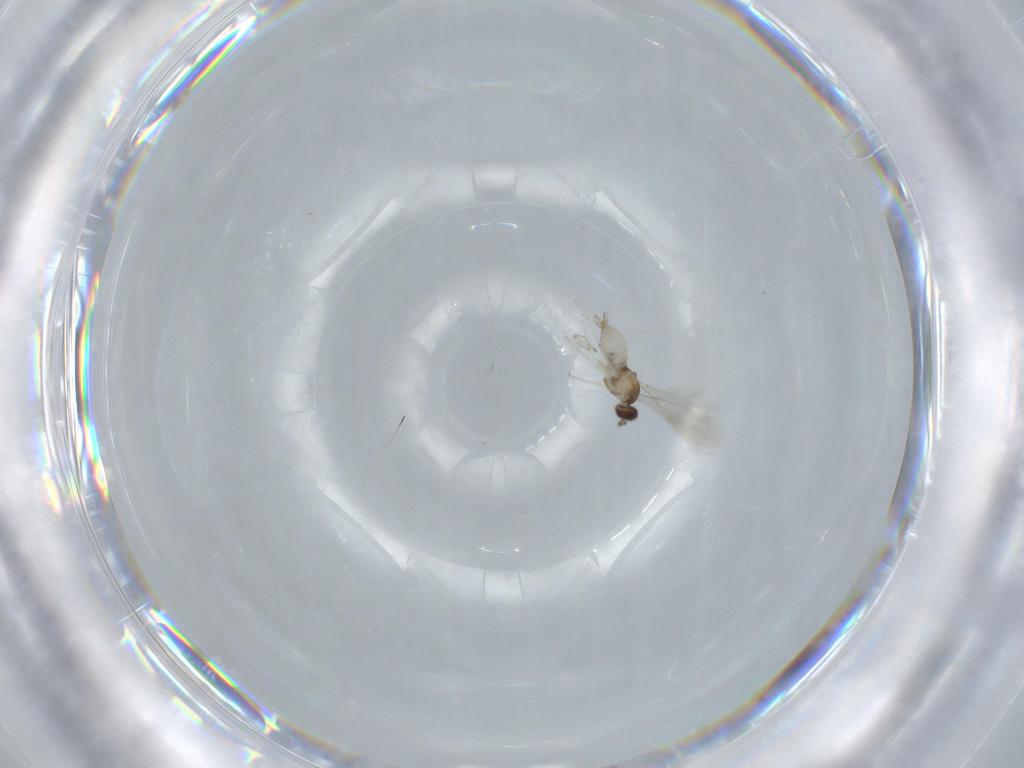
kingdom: Animalia
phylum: Arthropoda
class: Insecta
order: Diptera
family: Cecidomyiidae
